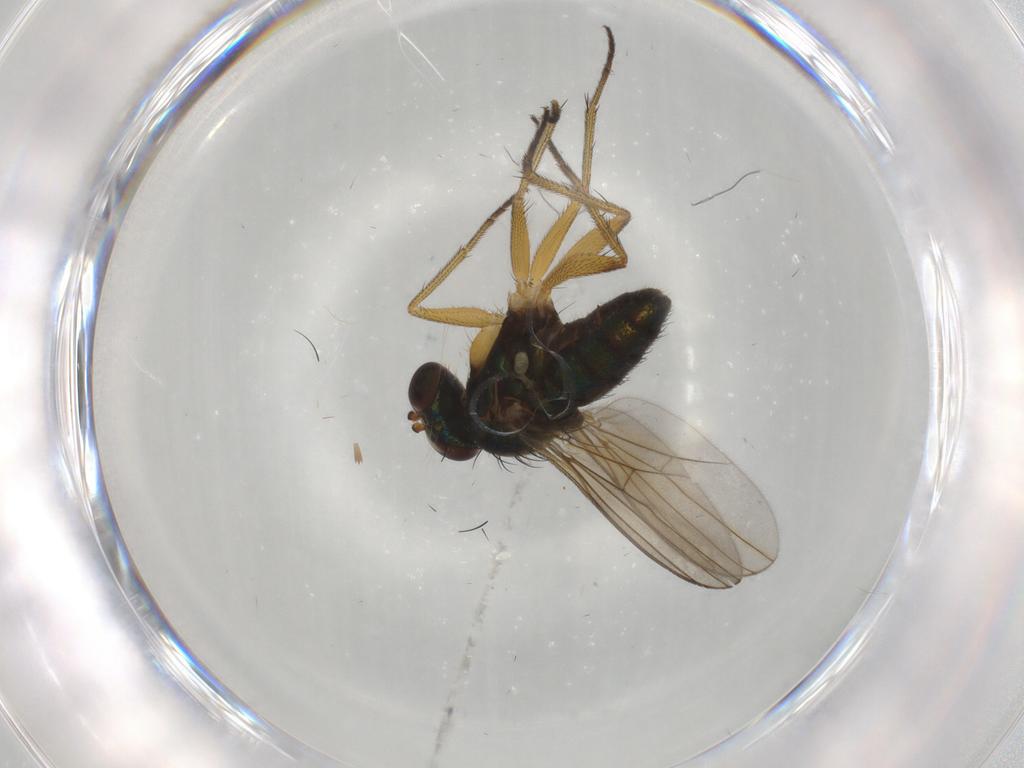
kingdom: Animalia
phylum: Arthropoda
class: Insecta
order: Diptera
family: Dolichopodidae
